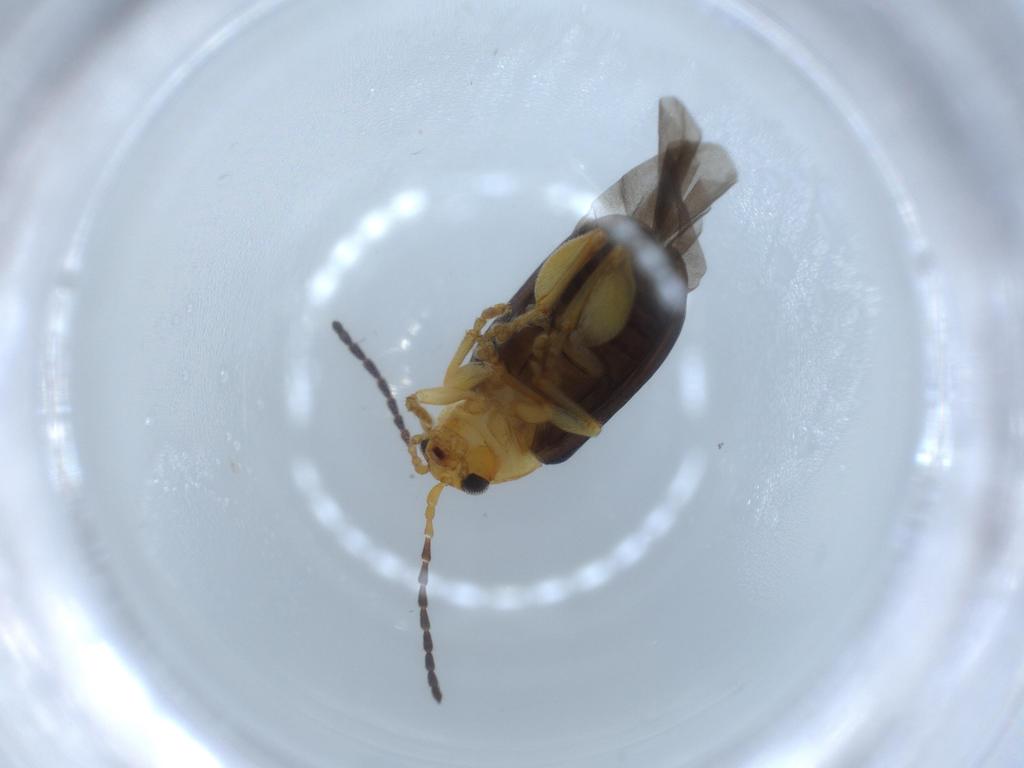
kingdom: Animalia
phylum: Arthropoda
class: Insecta
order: Coleoptera
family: Chrysomelidae
